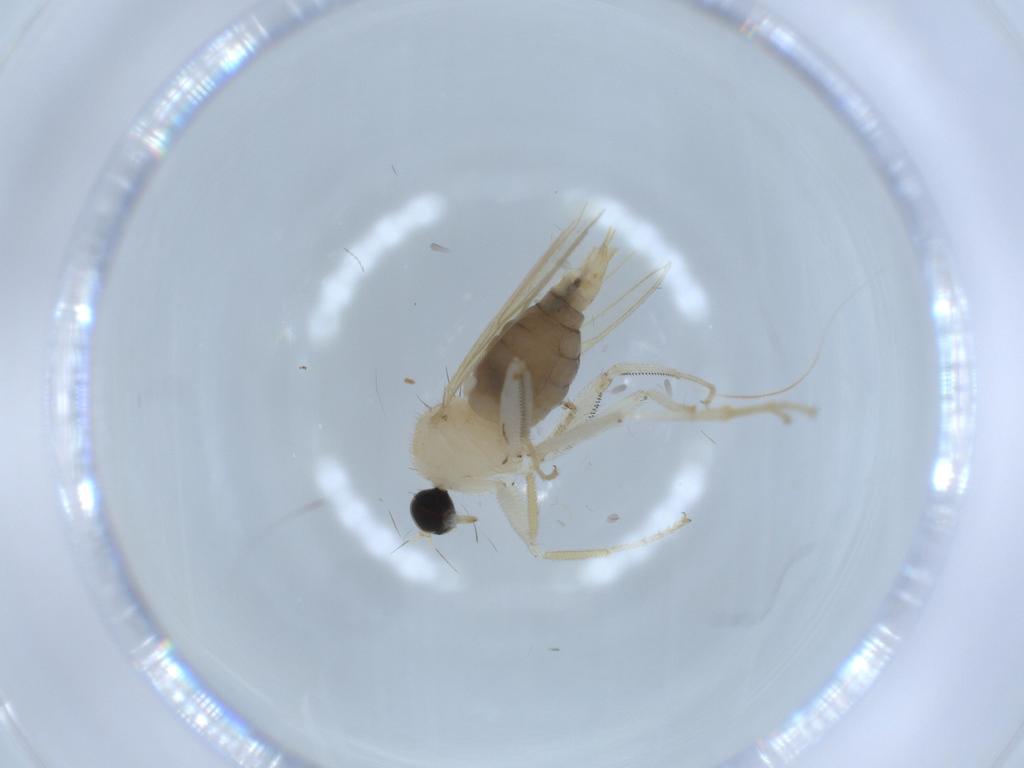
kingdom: Animalia
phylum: Arthropoda
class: Insecta
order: Diptera
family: Hybotidae
